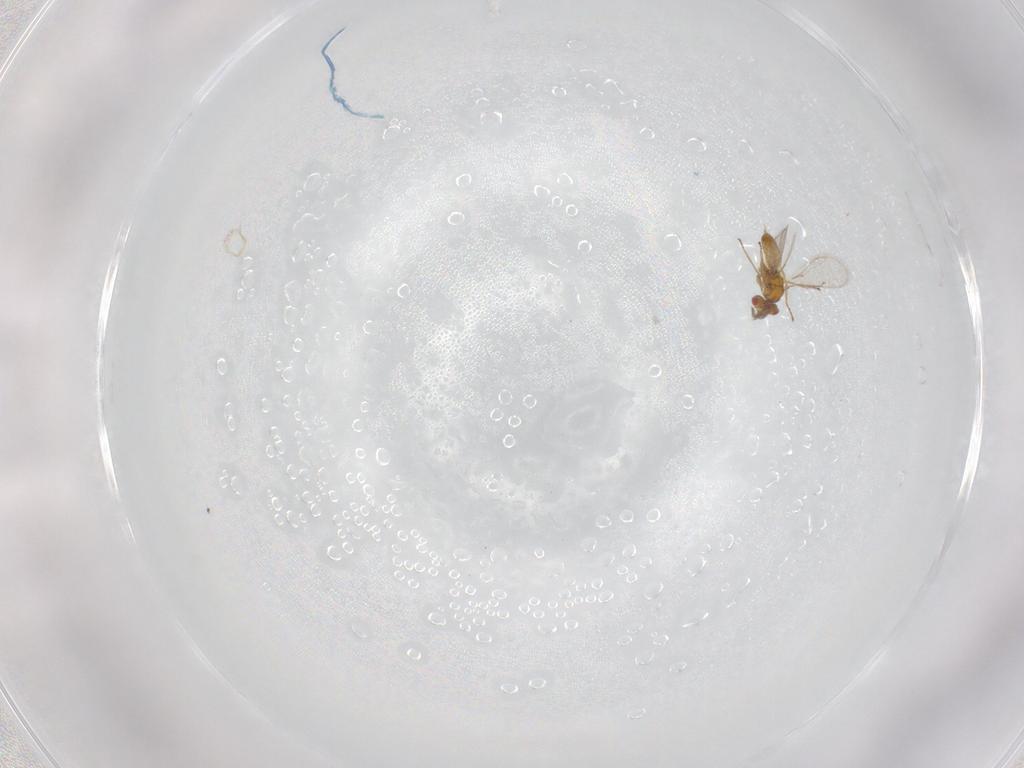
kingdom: Animalia
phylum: Arthropoda
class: Insecta
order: Hymenoptera
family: Eulophidae
